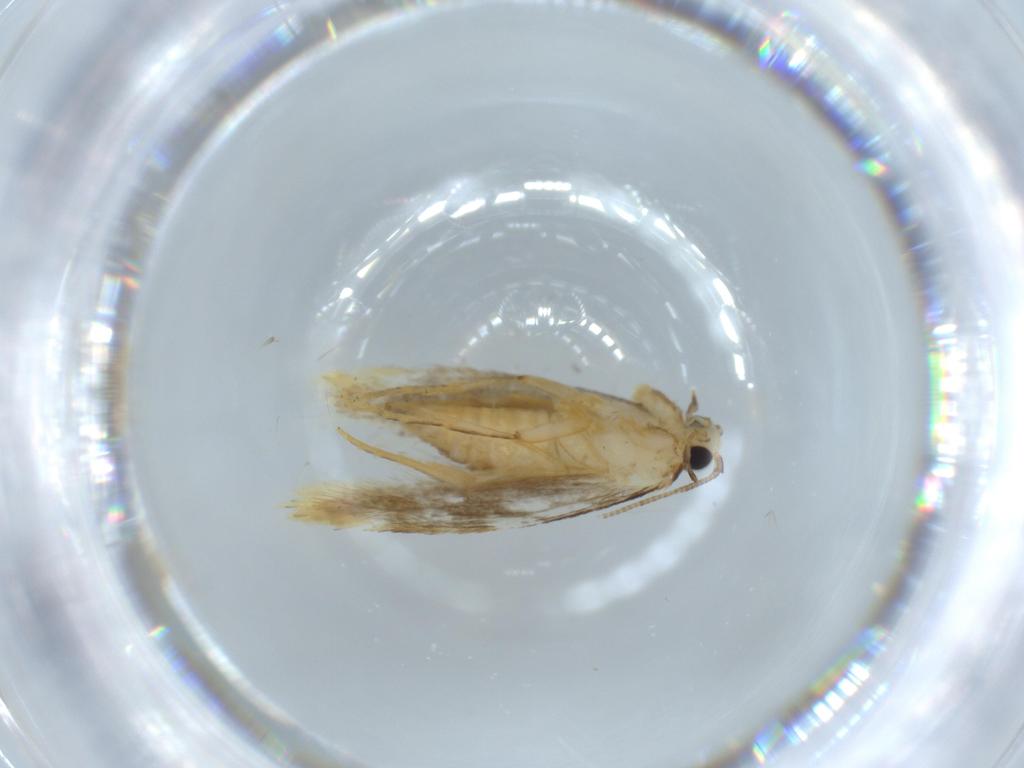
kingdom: Animalia
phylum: Arthropoda
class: Insecta
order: Lepidoptera
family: Tineidae
